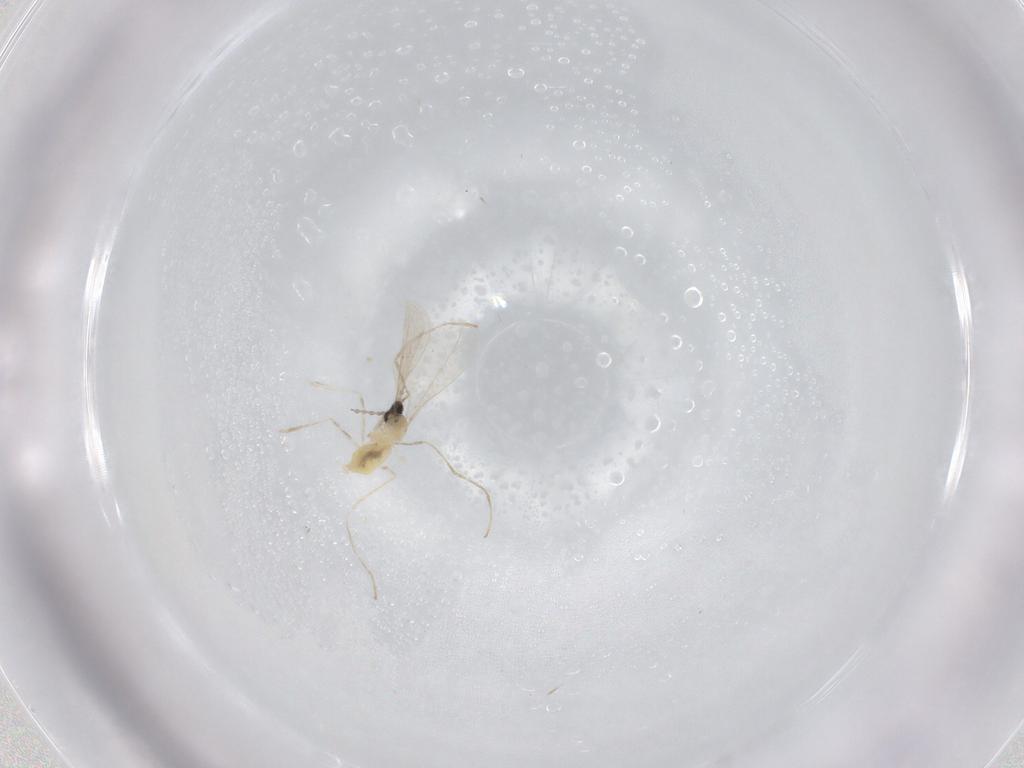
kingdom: Animalia
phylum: Arthropoda
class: Insecta
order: Diptera
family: Cecidomyiidae
